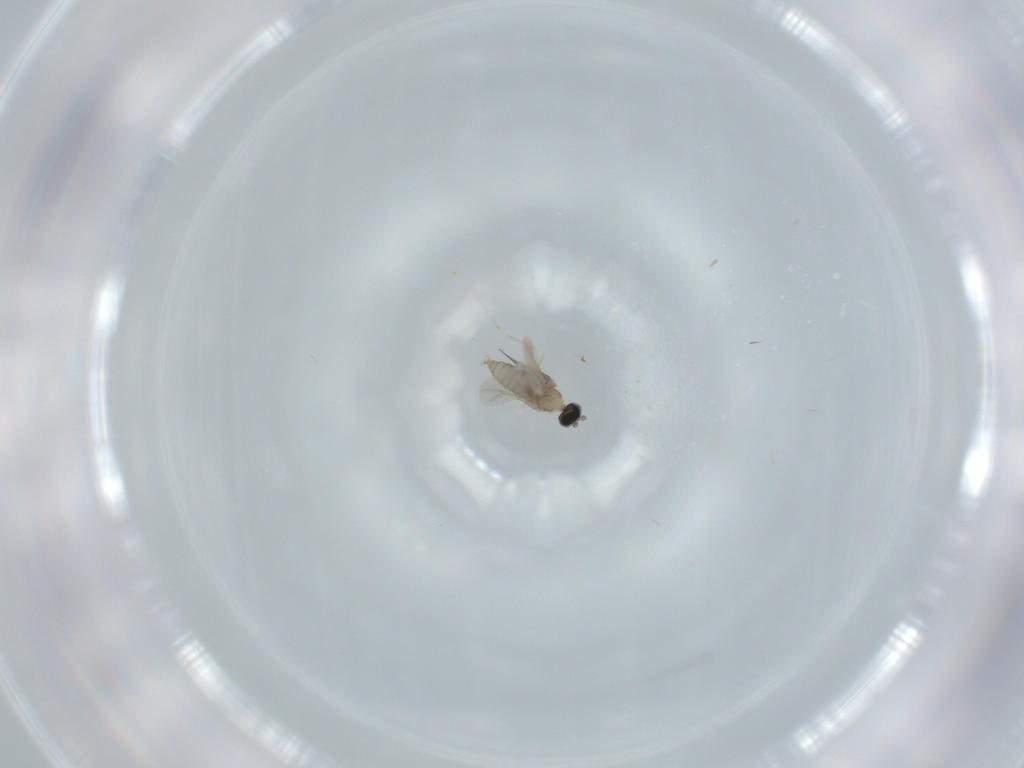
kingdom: Animalia
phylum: Arthropoda
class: Insecta
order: Diptera
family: Cecidomyiidae
